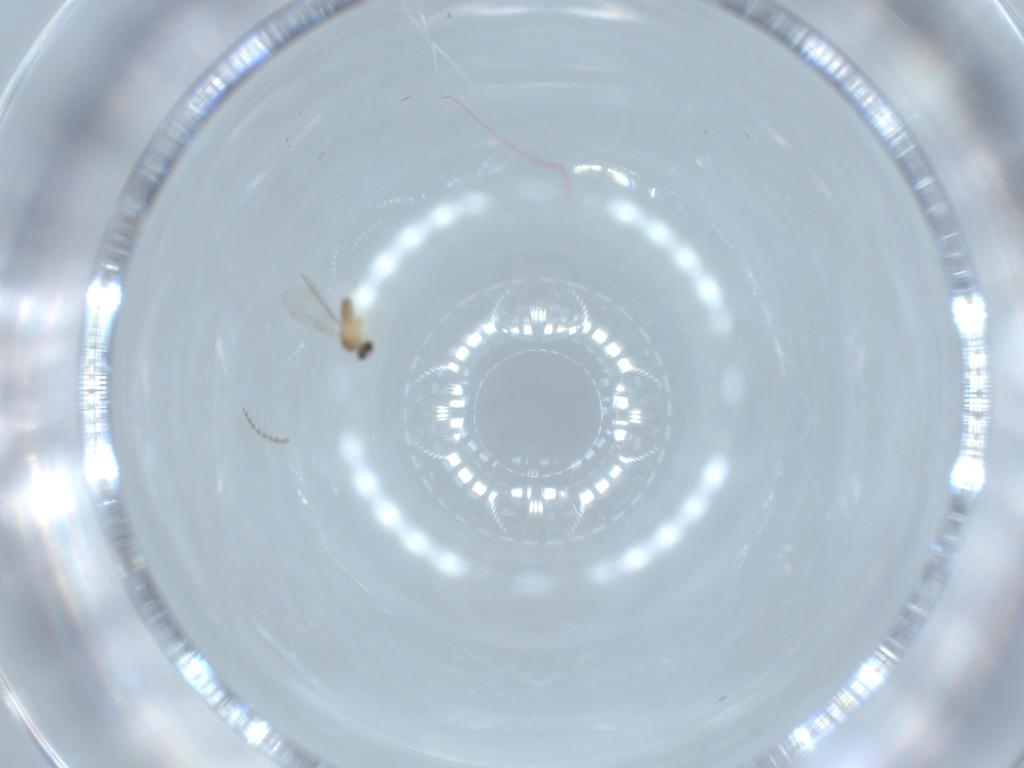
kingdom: Animalia
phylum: Arthropoda
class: Insecta
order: Diptera
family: Cecidomyiidae
